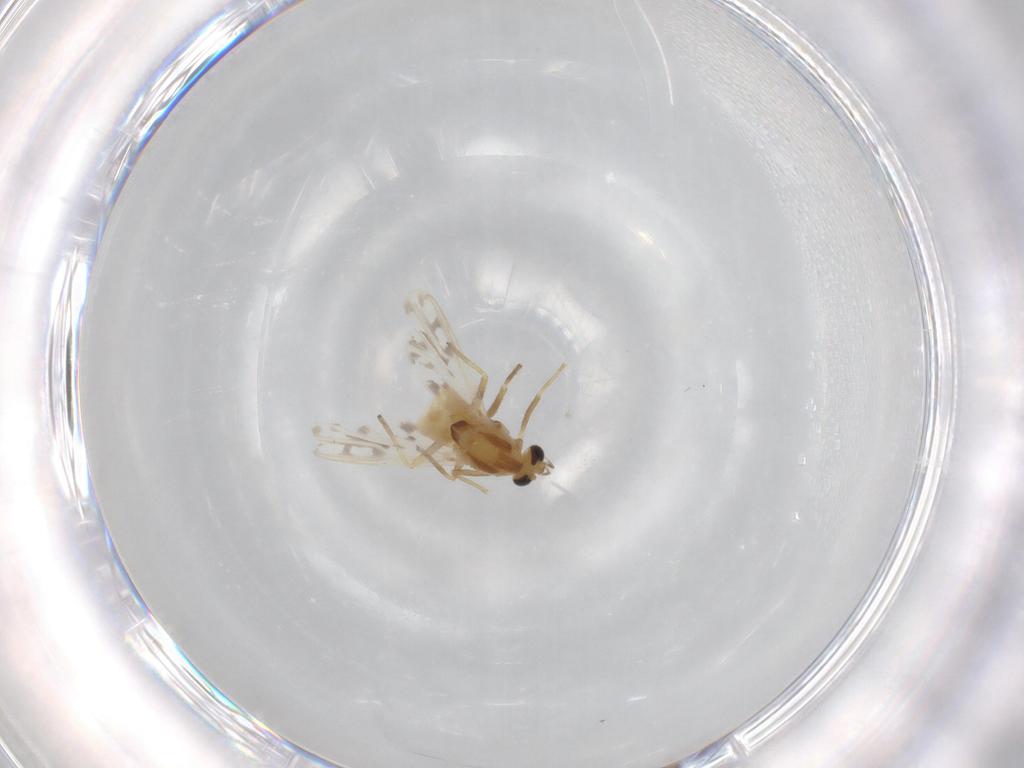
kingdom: Animalia
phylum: Arthropoda
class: Insecta
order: Diptera
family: Chironomidae
